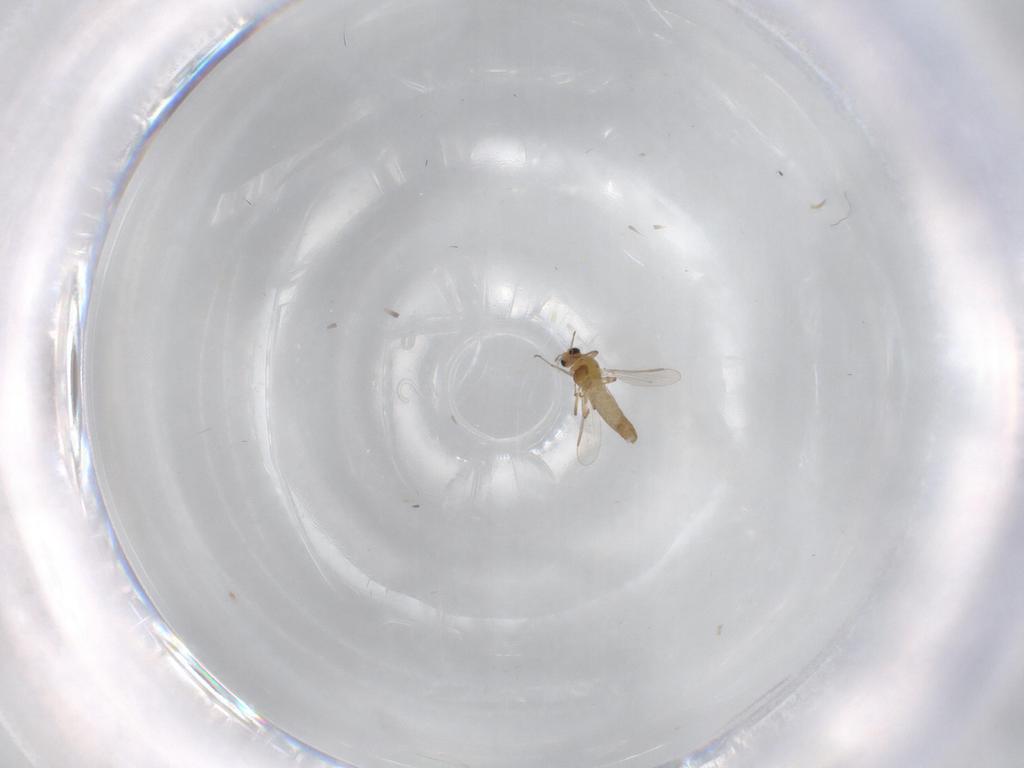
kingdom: Animalia
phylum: Arthropoda
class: Insecta
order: Diptera
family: Chironomidae
